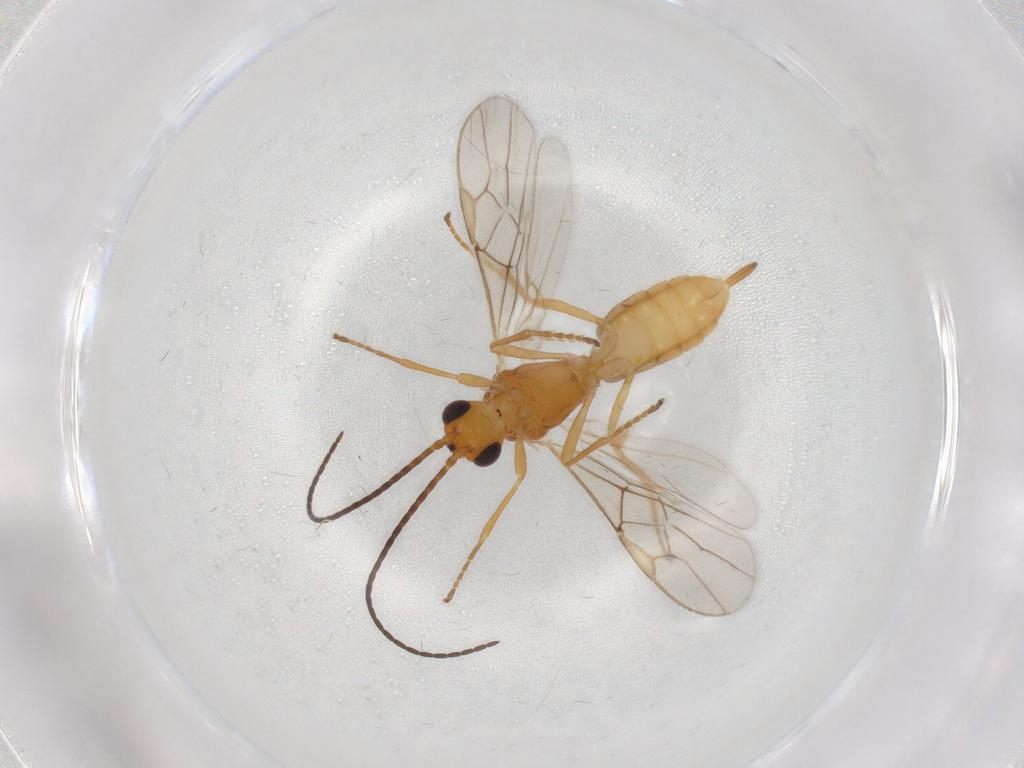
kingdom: Animalia
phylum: Arthropoda
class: Insecta
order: Hymenoptera
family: Braconidae
